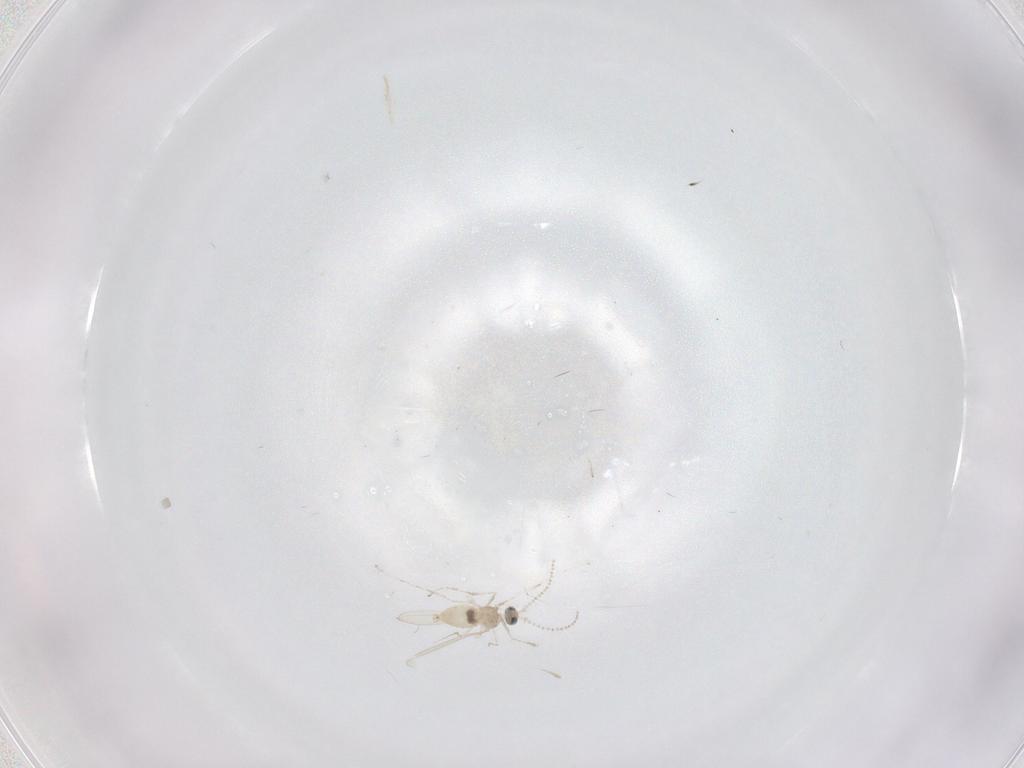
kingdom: Animalia
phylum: Arthropoda
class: Insecta
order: Diptera
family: Cecidomyiidae
